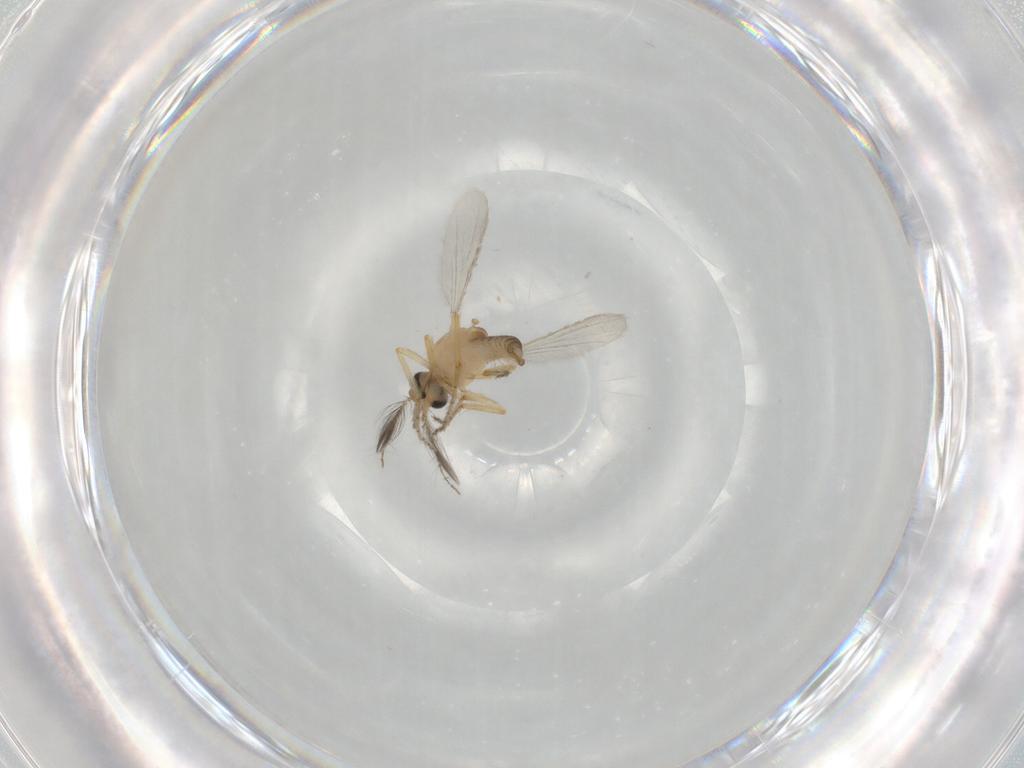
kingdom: Animalia
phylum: Arthropoda
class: Insecta
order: Diptera
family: Ceratopogonidae
